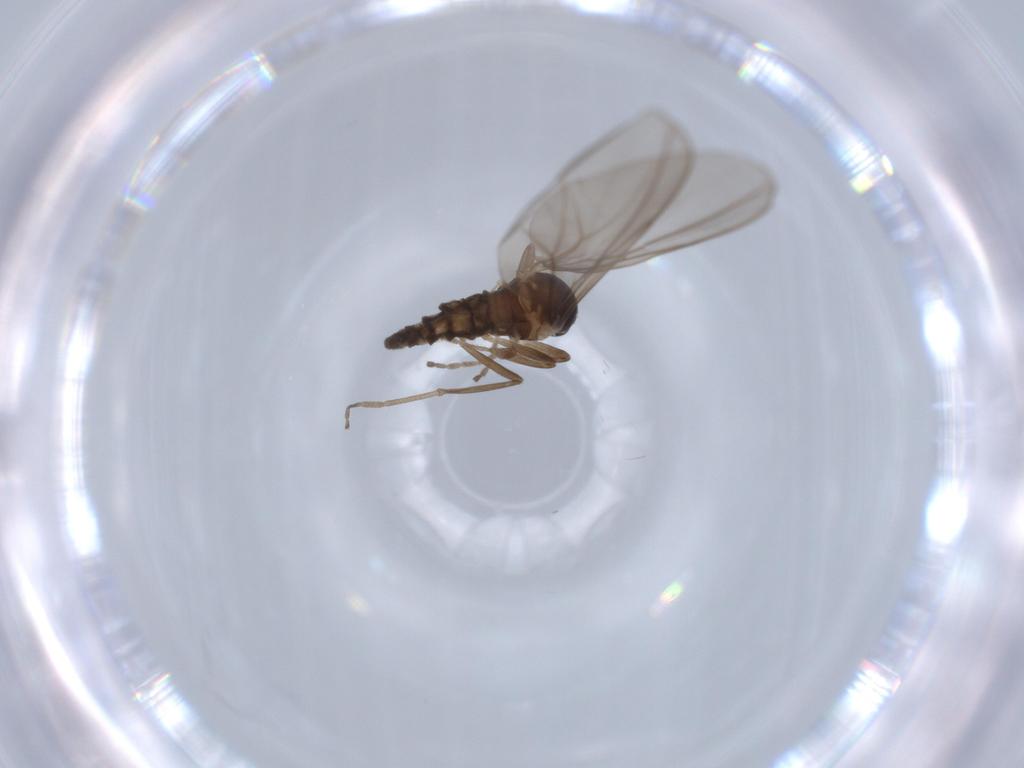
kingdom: Animalia
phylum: Arthropoda
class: Insecta
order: Diptera
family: Cecidomyiidae
